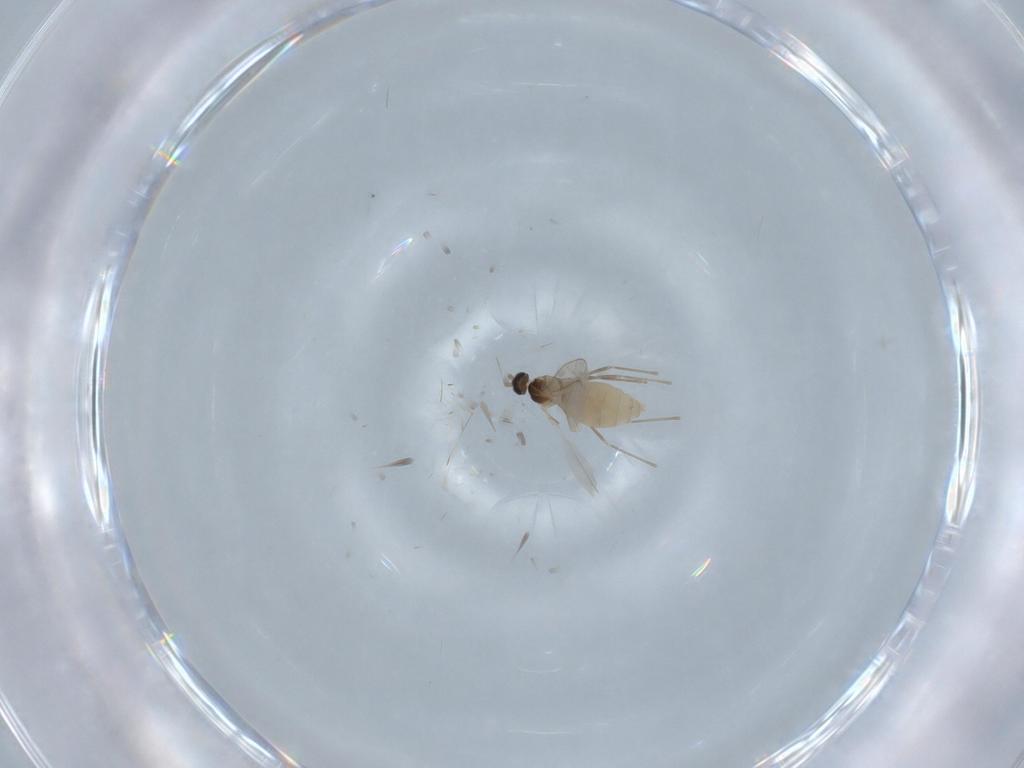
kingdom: Animalia
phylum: Arthropoda
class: Insecta
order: Diptera
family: Cecidomyiidae
